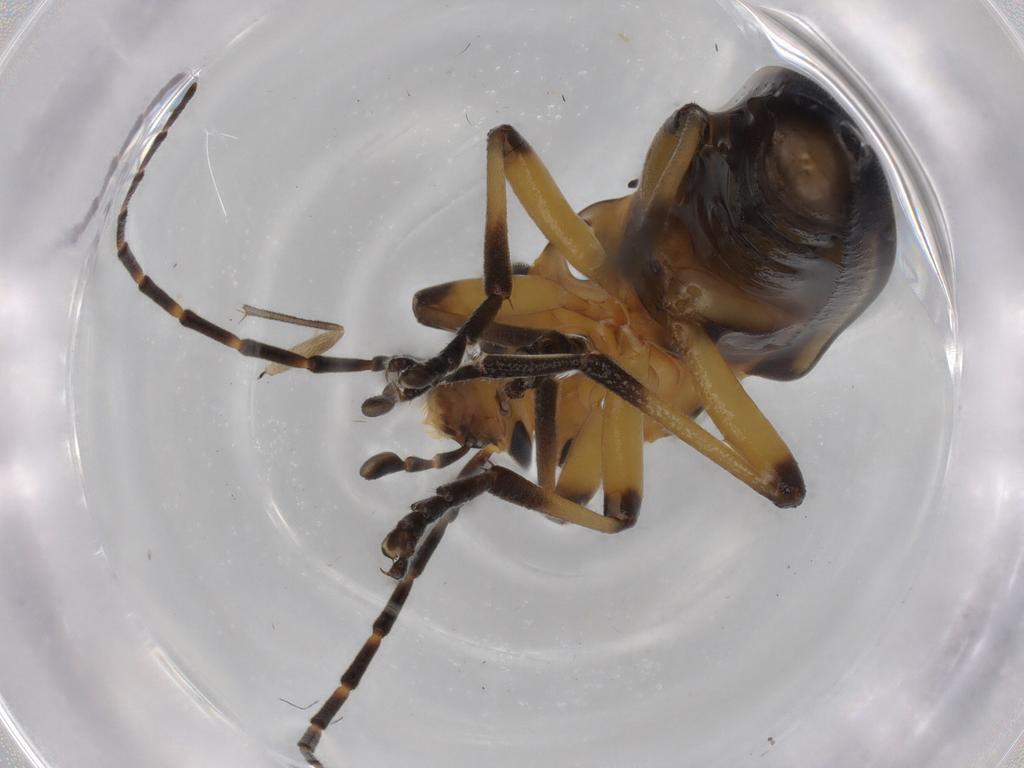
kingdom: Animalia
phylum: Arthropoda
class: Insecta
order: Coleoptera
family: Oedemeridae
